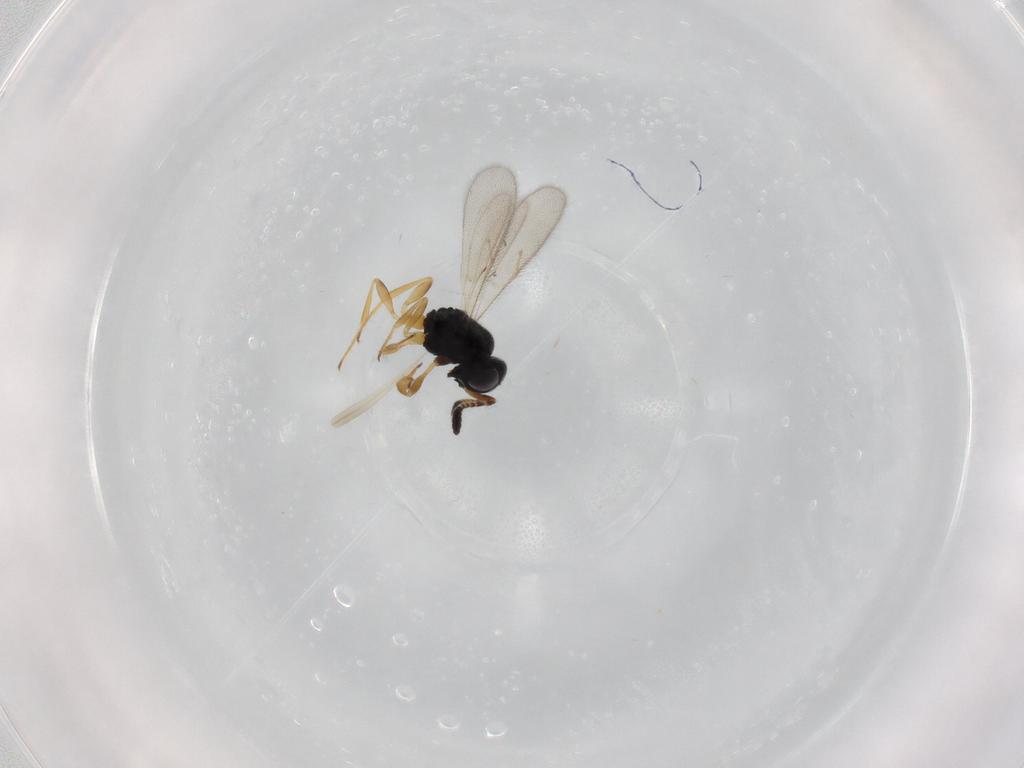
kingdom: Animalia
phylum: Arthropoda
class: Insecta
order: Hymenoptera
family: Scelionidae
